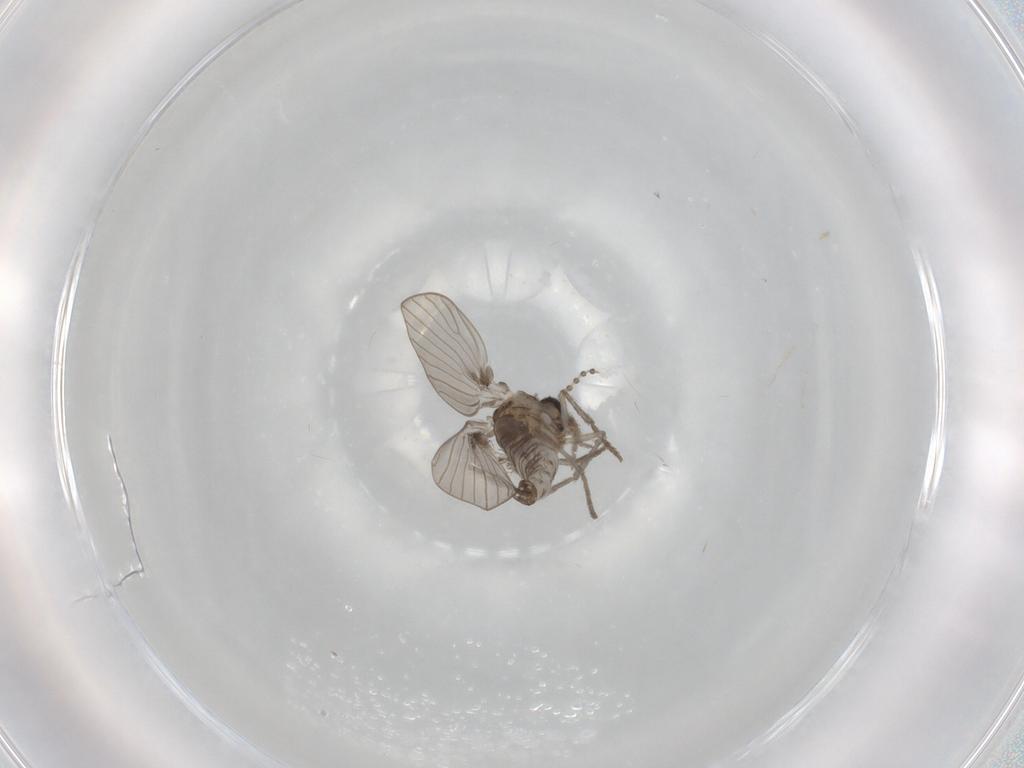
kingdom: Animalia
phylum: Arthropoda
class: Insecta
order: Diptera
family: Psychodidae
